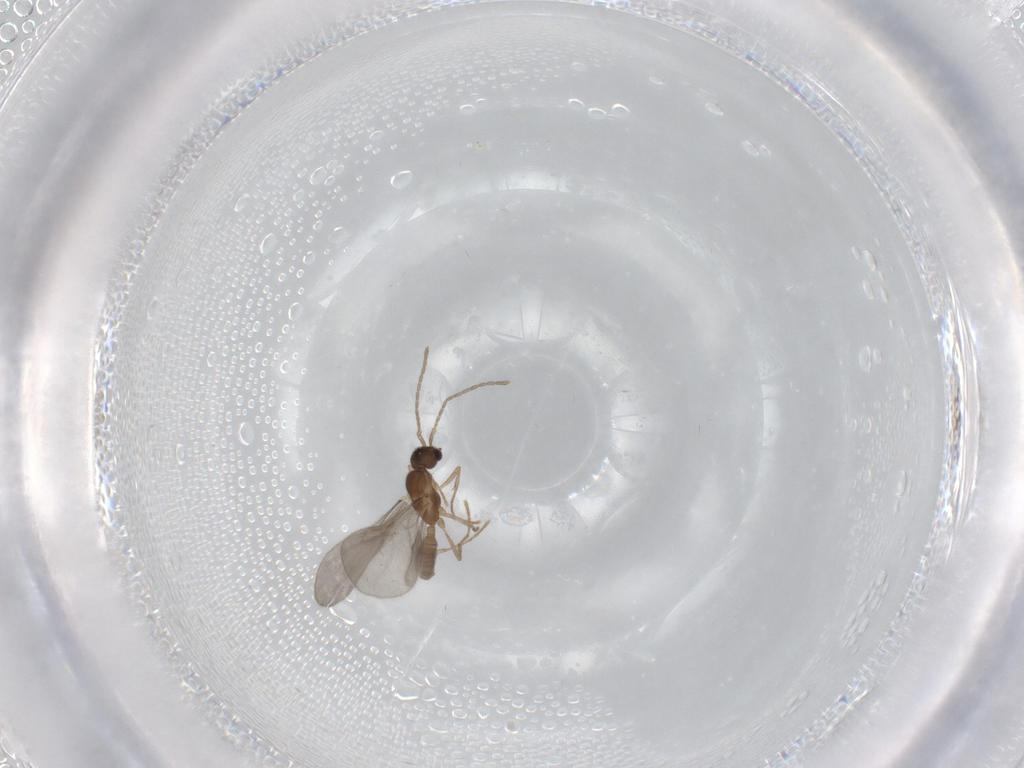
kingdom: Animalia
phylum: Arthropoda
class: Insecta
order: Hymenoptera
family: Formicidae
